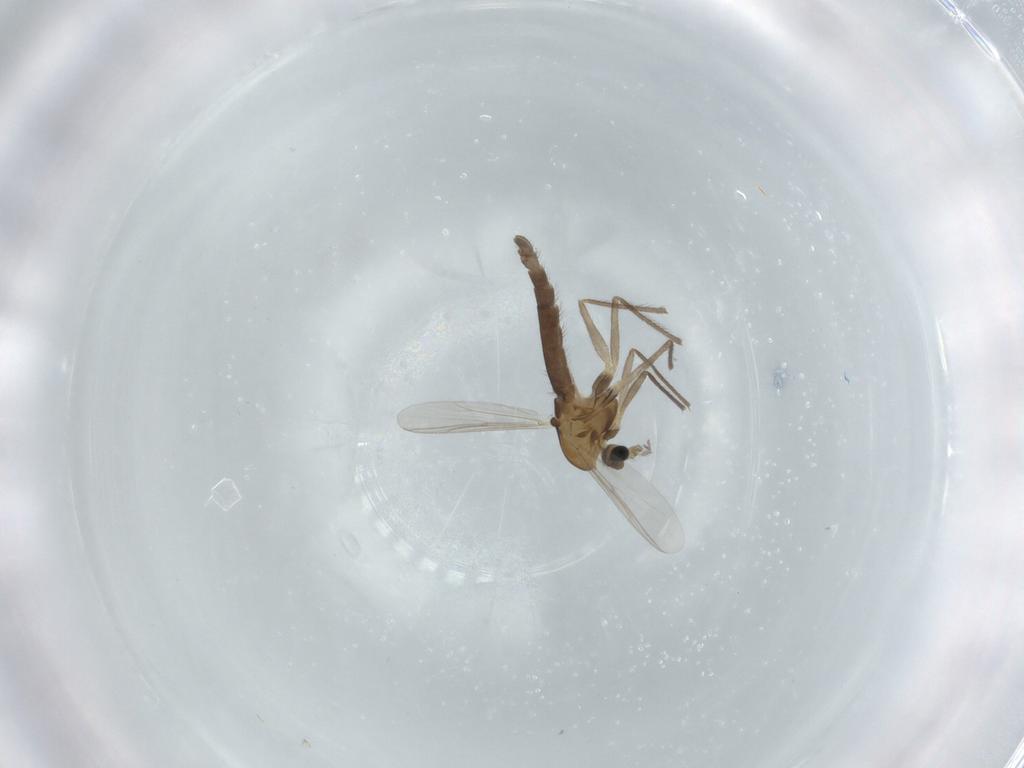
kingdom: Animalia
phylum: Arthropoda
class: Insecta
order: Diptera
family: Chironomidae
